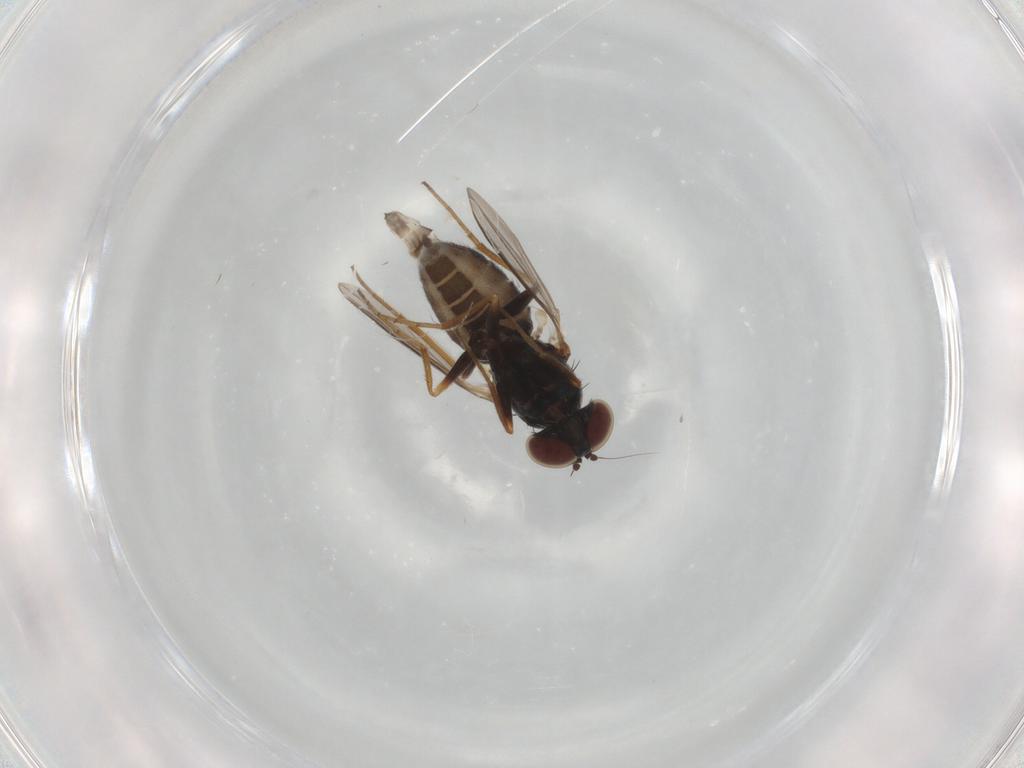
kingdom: Animalia
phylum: Arthropoda
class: Insecta
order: Diptera
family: Dolichopodidae
